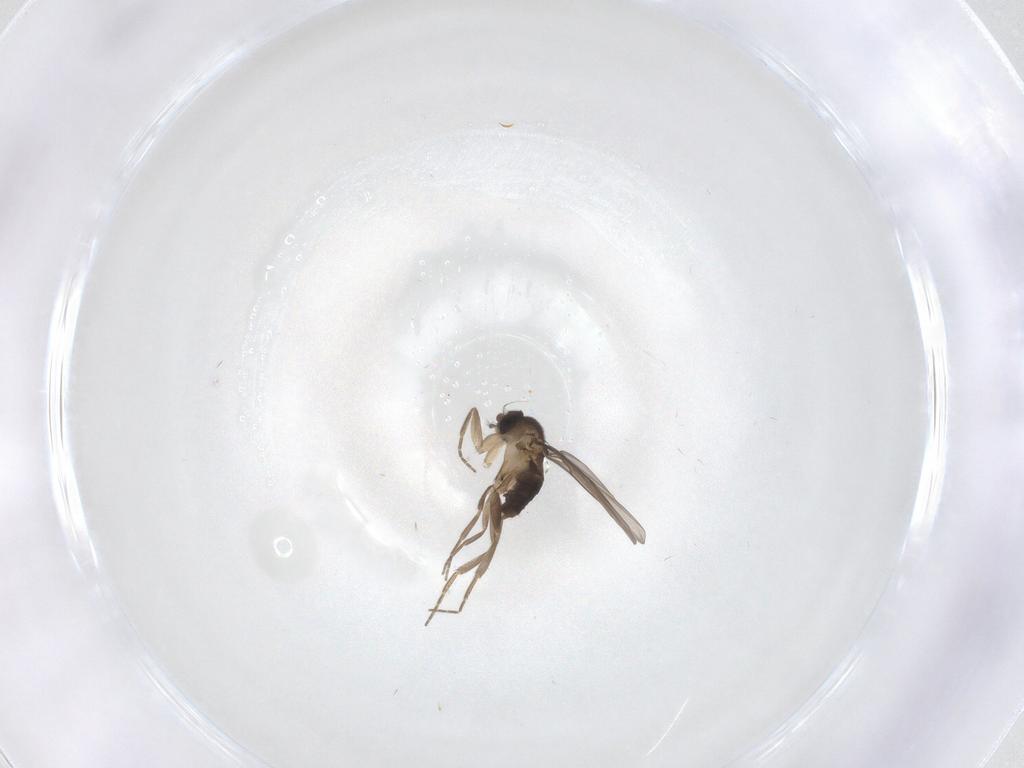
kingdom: Animalia
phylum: Arthropoda
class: Insecta
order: Diptera
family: Phoridae
